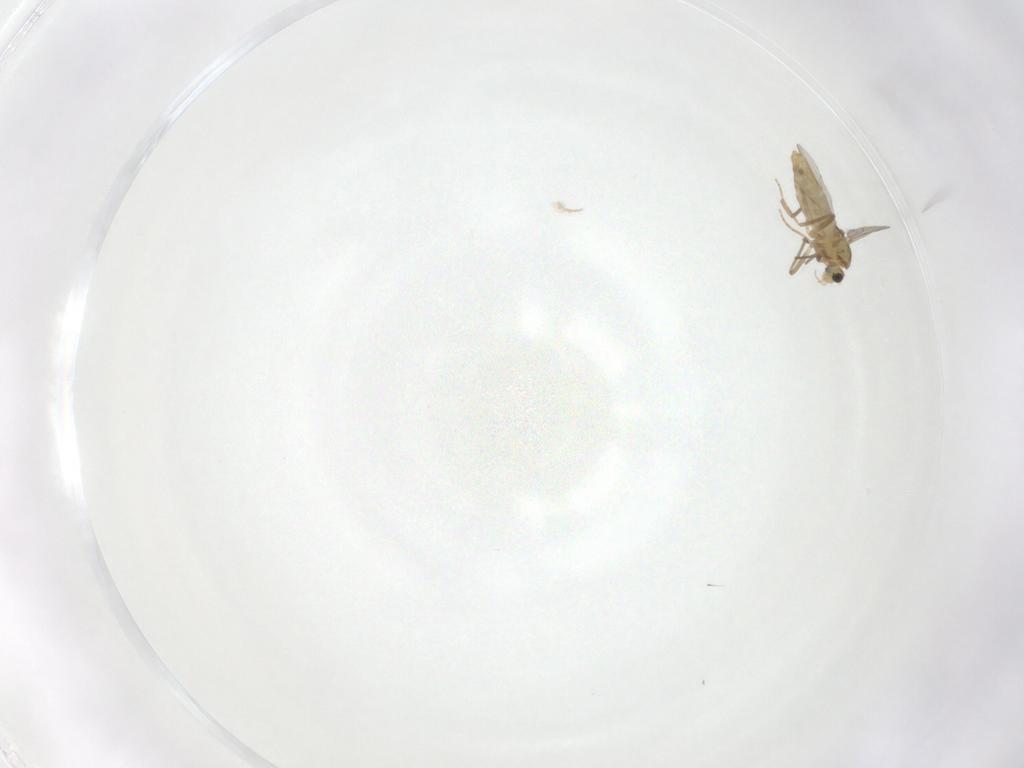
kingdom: Animalia
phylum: Arthropoda
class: Insecta
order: Diptera
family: Chironomidae
